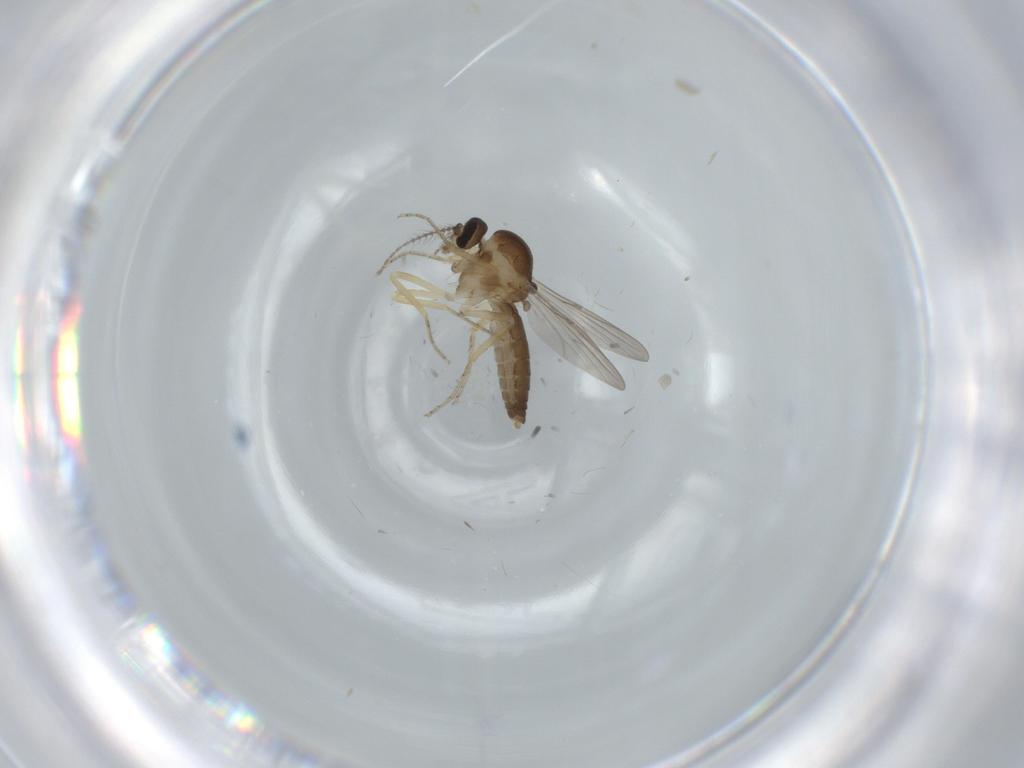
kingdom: Animalia
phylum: Arthropoda
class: Insecta
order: Diptera
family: Ceratopogonidae
